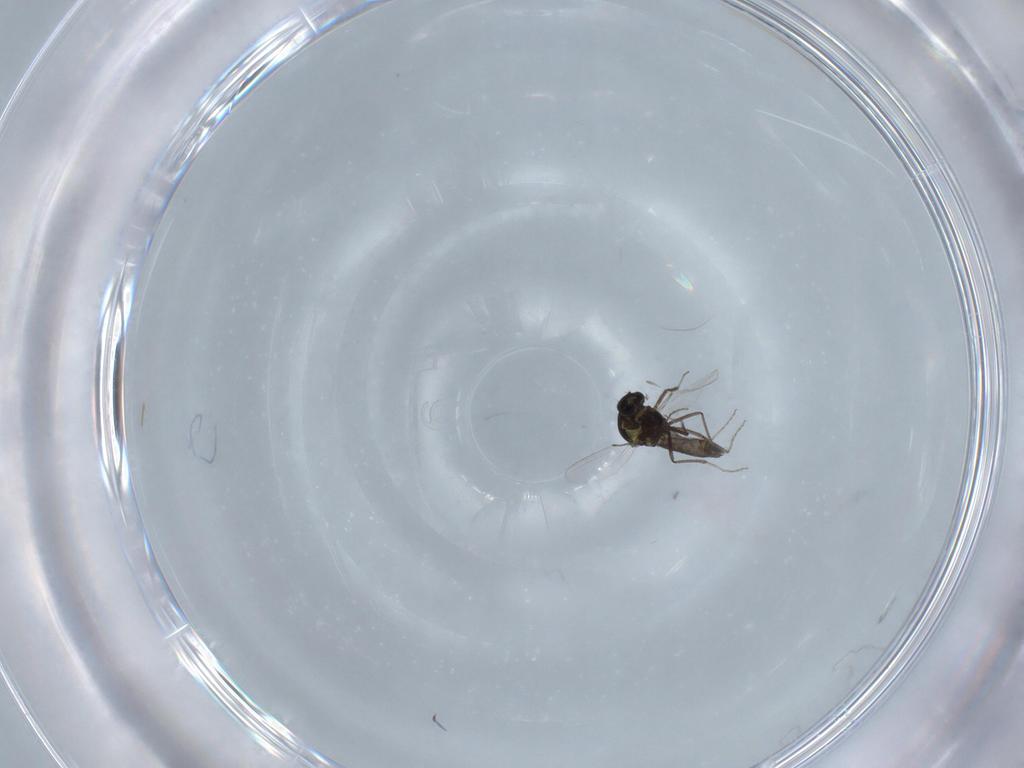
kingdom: Animalia
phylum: Arthropoda
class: Insecta
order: Diptera
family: Ceratopogonidae
